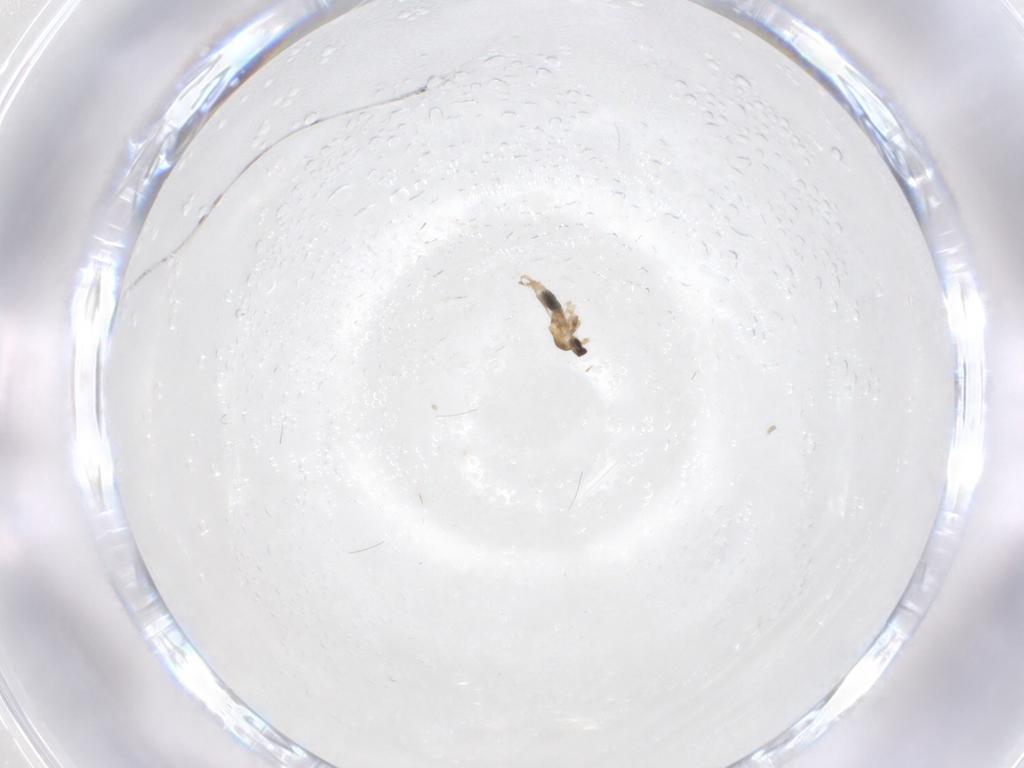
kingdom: Animalia
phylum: Arthropoda
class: Insecta
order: Diptera
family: Cecidomyiidae
